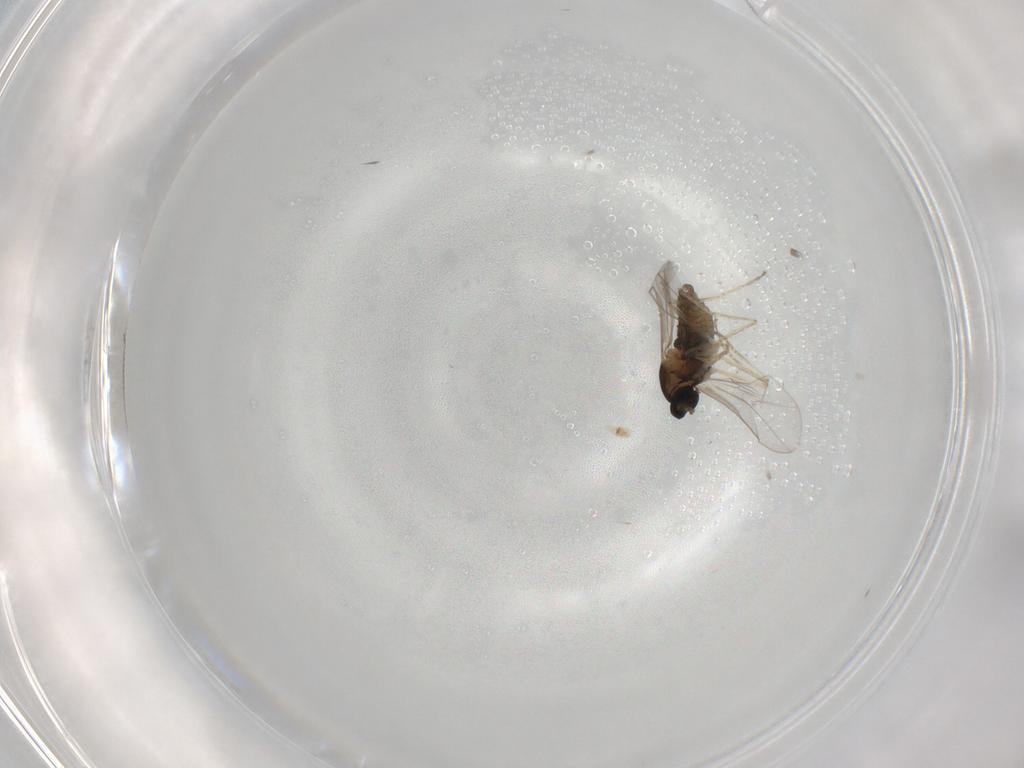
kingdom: Animalia
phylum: Arthropoda
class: Insecta
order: Diptera
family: Cecidomyiidae
